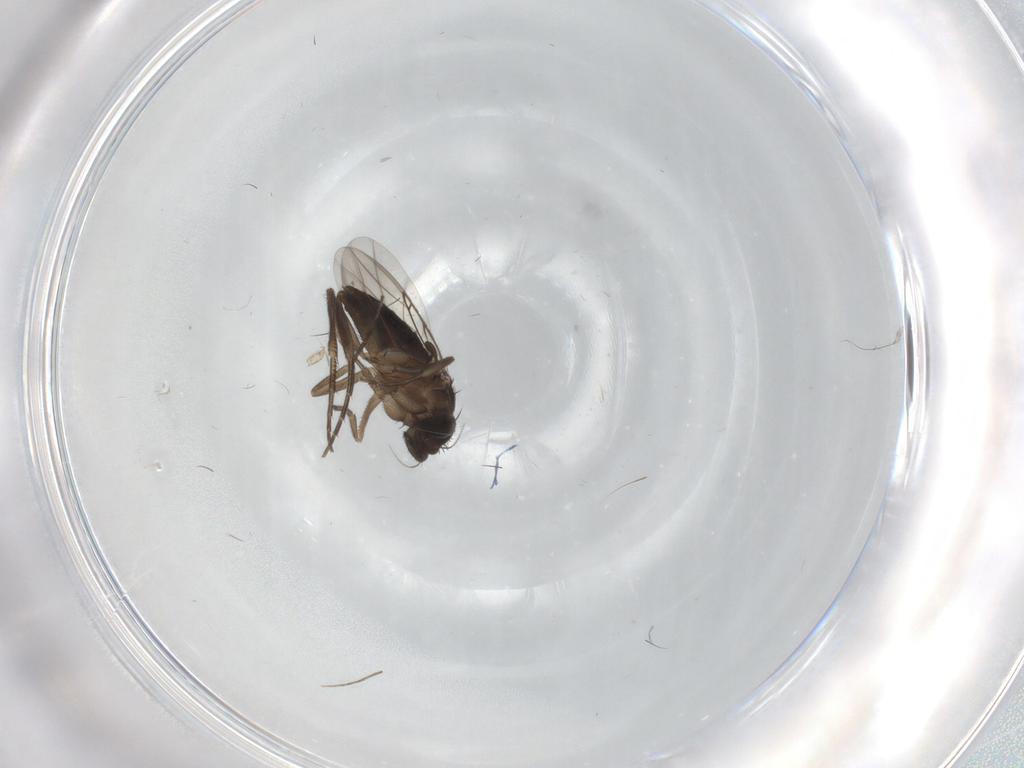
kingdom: Animalia
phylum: Arthropoda
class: Insecta
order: Diptera
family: Phoridae
